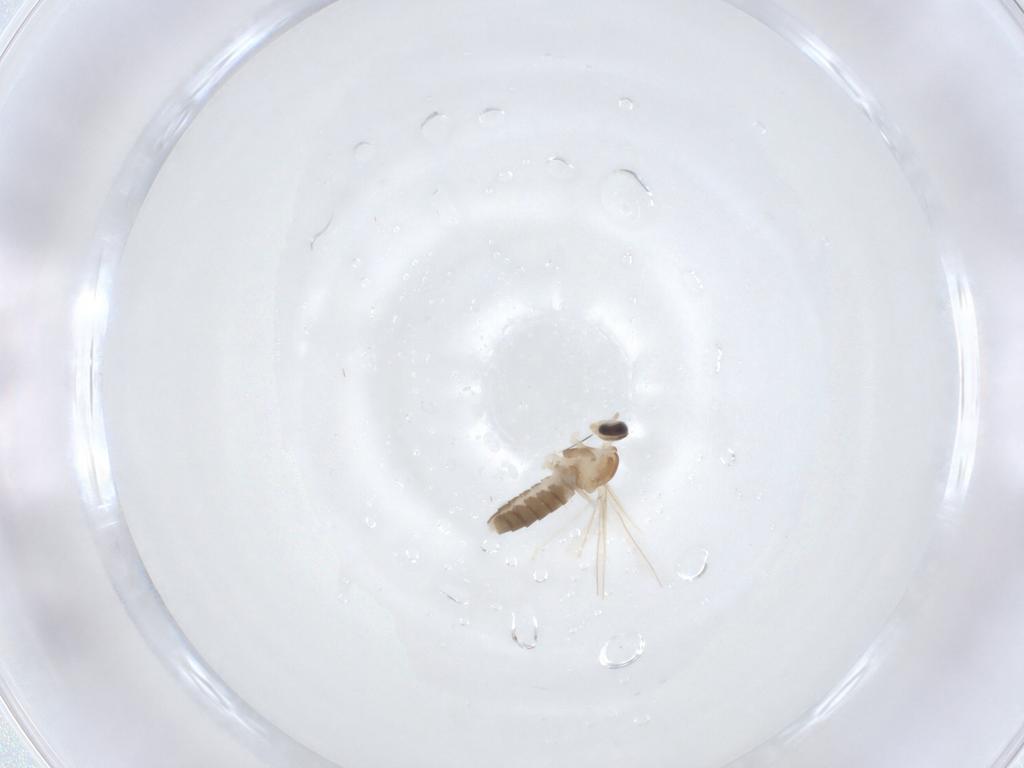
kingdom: Animalia
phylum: Arthropoda
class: Insecta
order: Diptera
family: Cecidomyiidae
